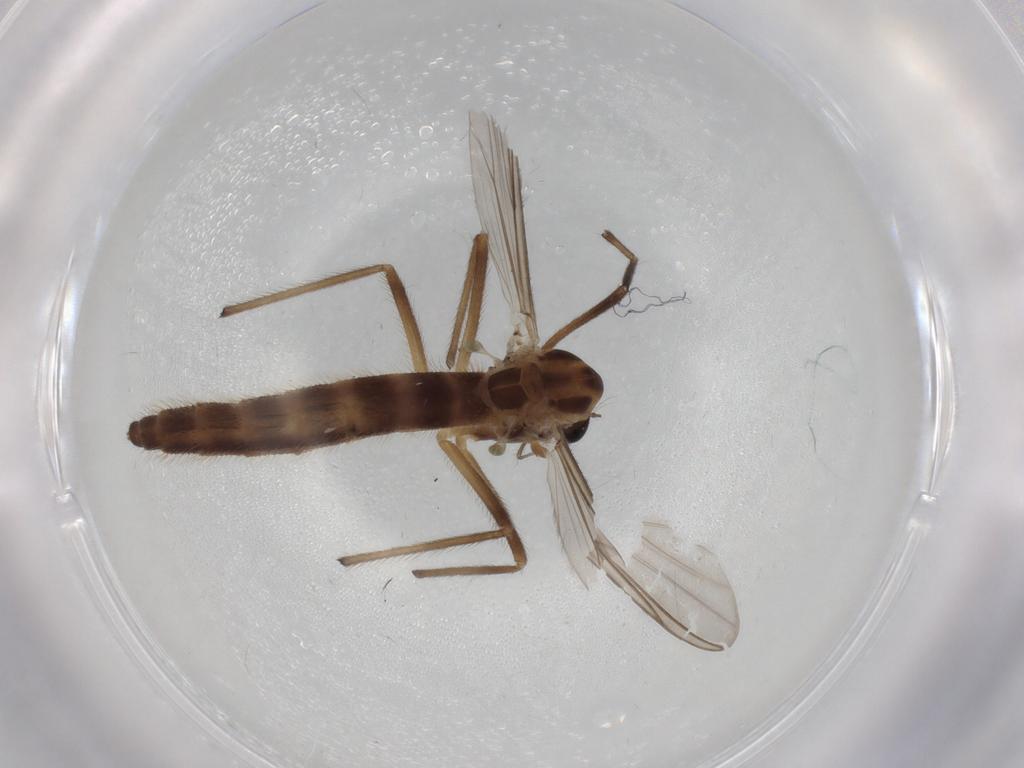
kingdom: Animalia
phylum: Arthropoda
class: Insecta
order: Diptera
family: Chironomidae
